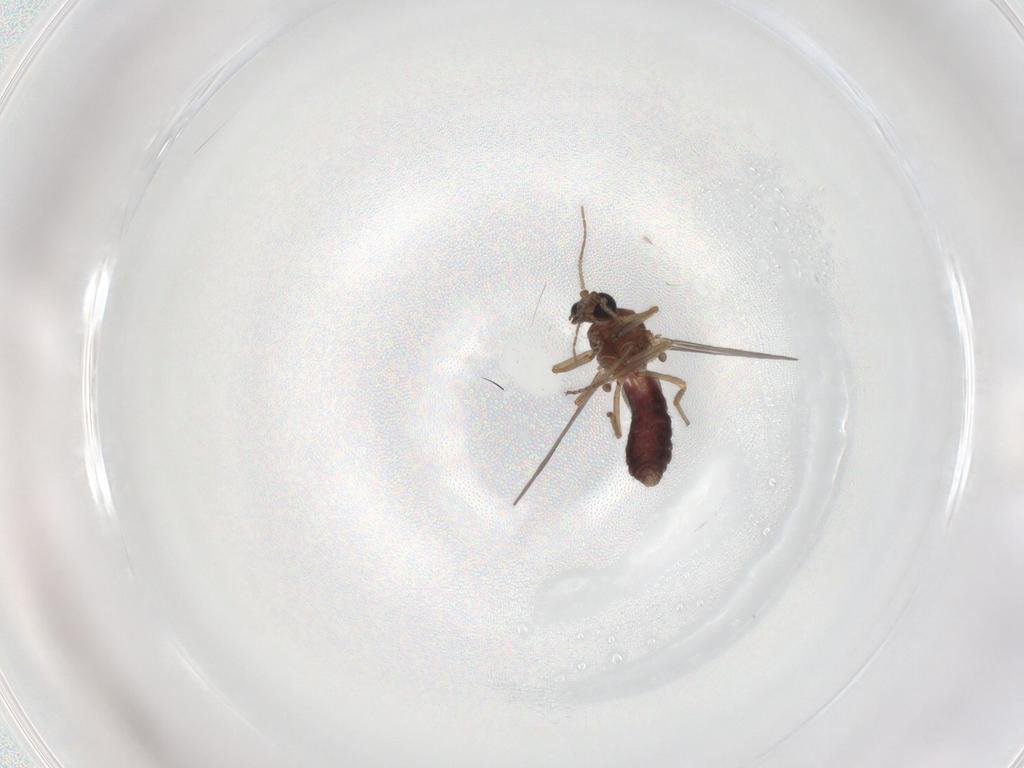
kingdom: Animalia
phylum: Arthropoda
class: Insecta
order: Diptera
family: Ceratopogonidae
